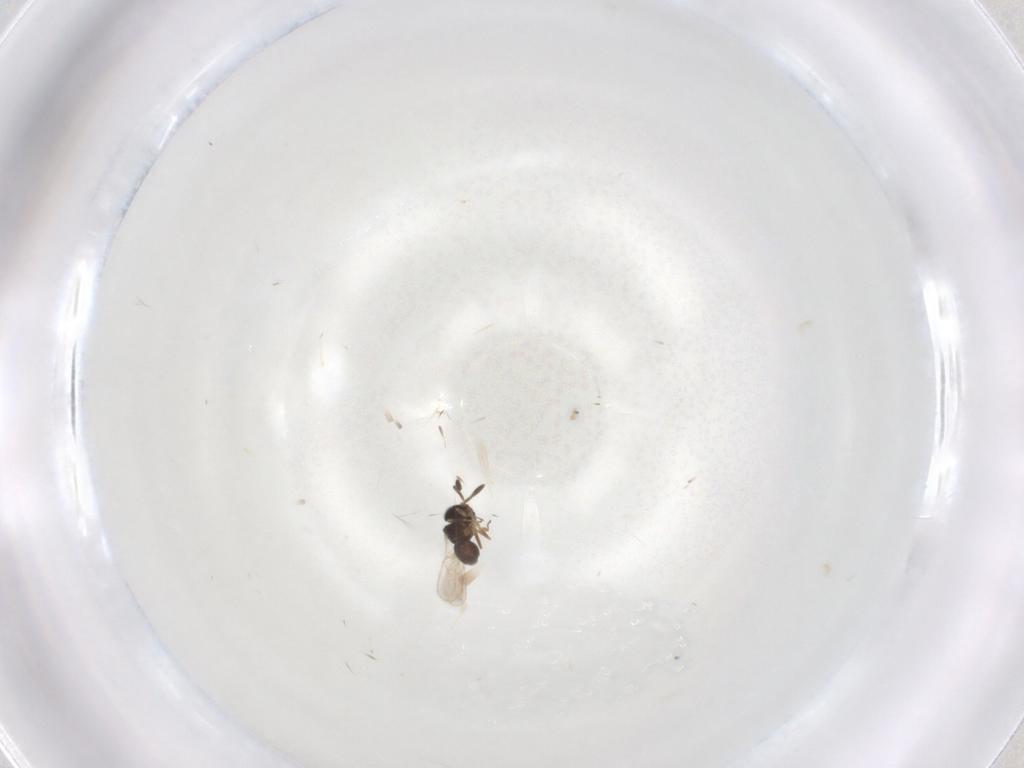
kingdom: Animalia
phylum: Arthropoda
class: Insecta
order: Hymenoptera
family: Scelionidae
